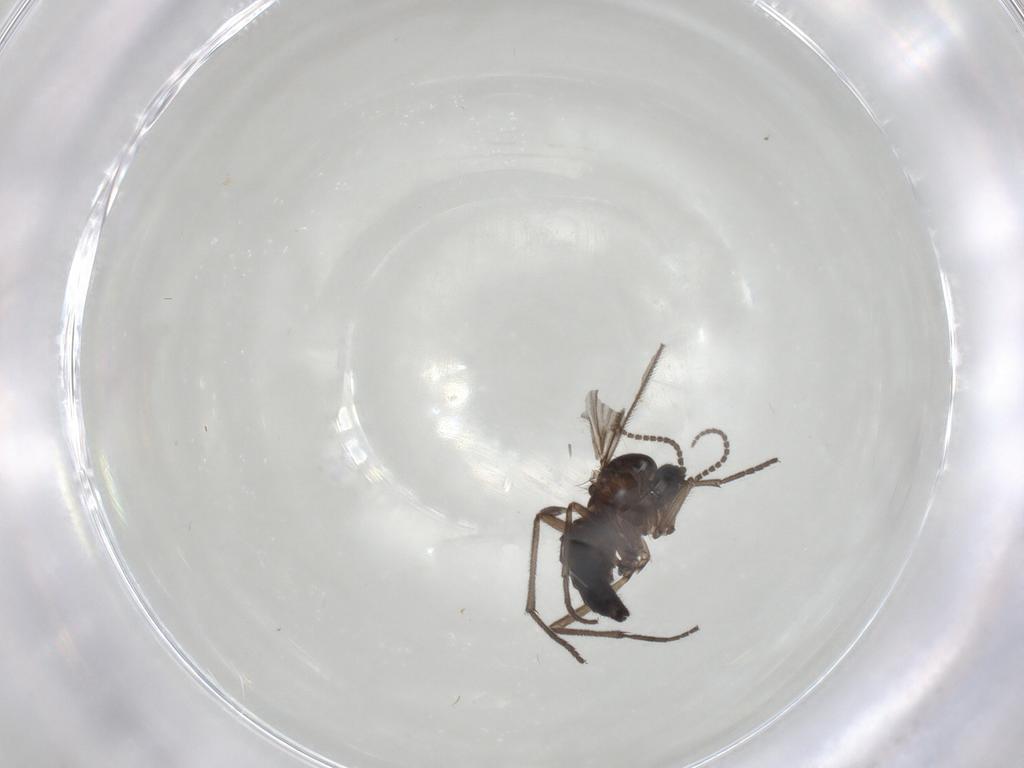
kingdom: Animalia
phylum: Arthropoda
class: Insecta
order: Diptera
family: Sciaridae
